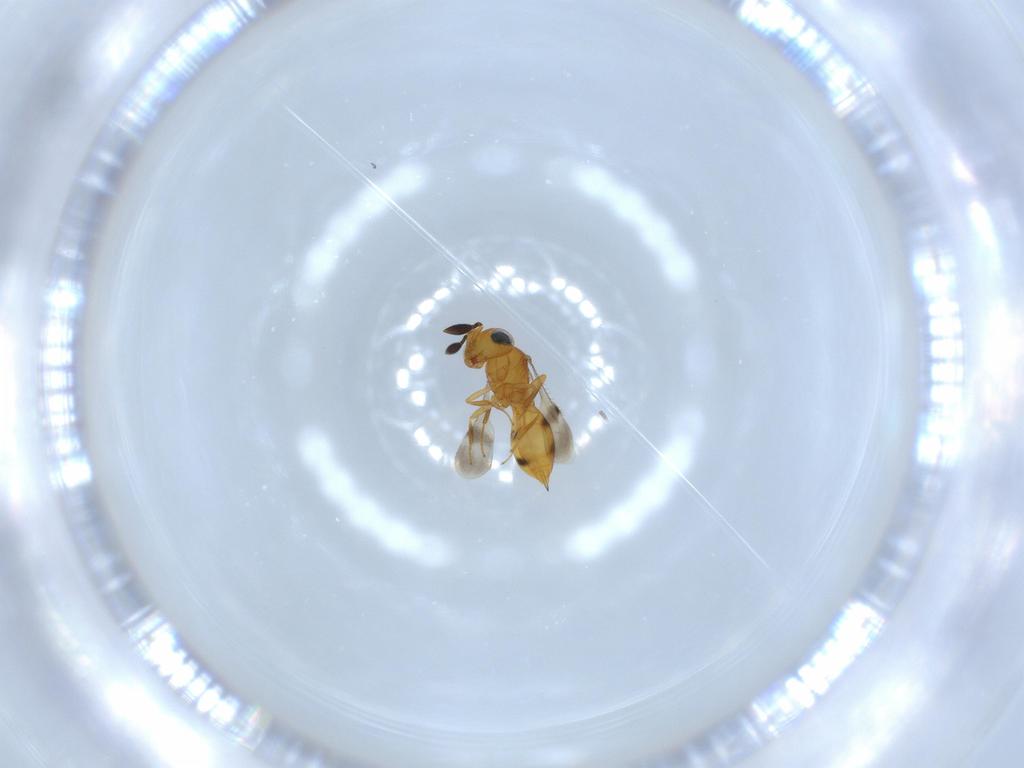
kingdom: Animalia
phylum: Arthropoda
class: Insecta
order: Hymenoptera
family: Scelionidae
